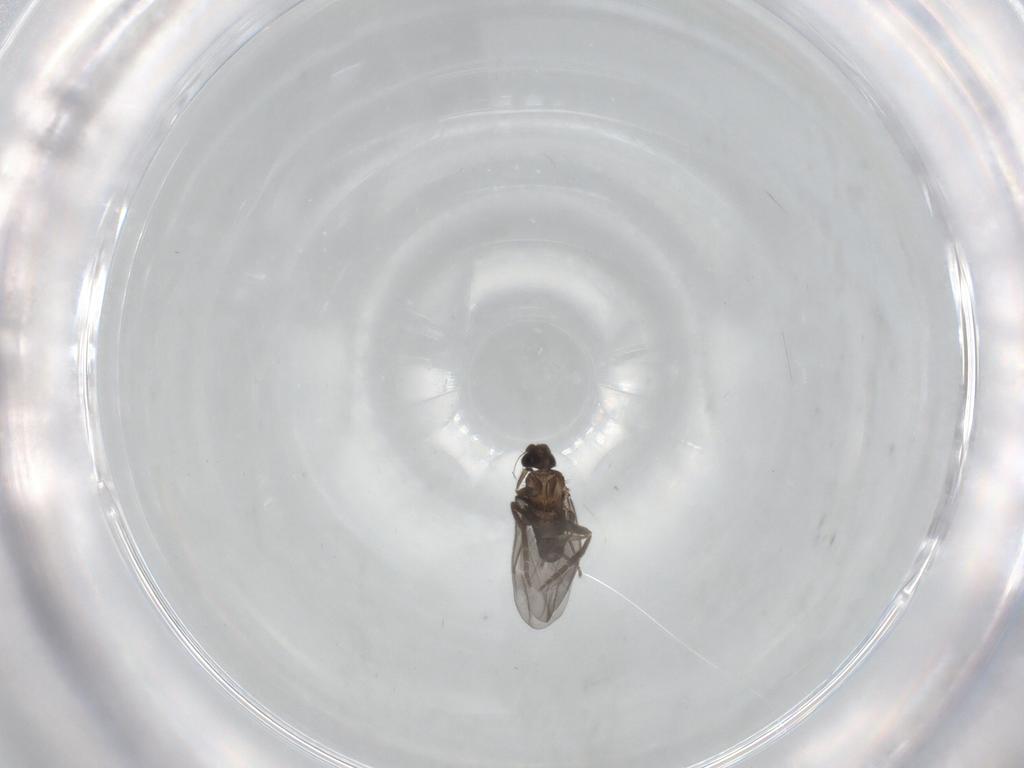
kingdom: Animalia
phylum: Arthropoda
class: Insecta
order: Diptera
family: Phoridae
